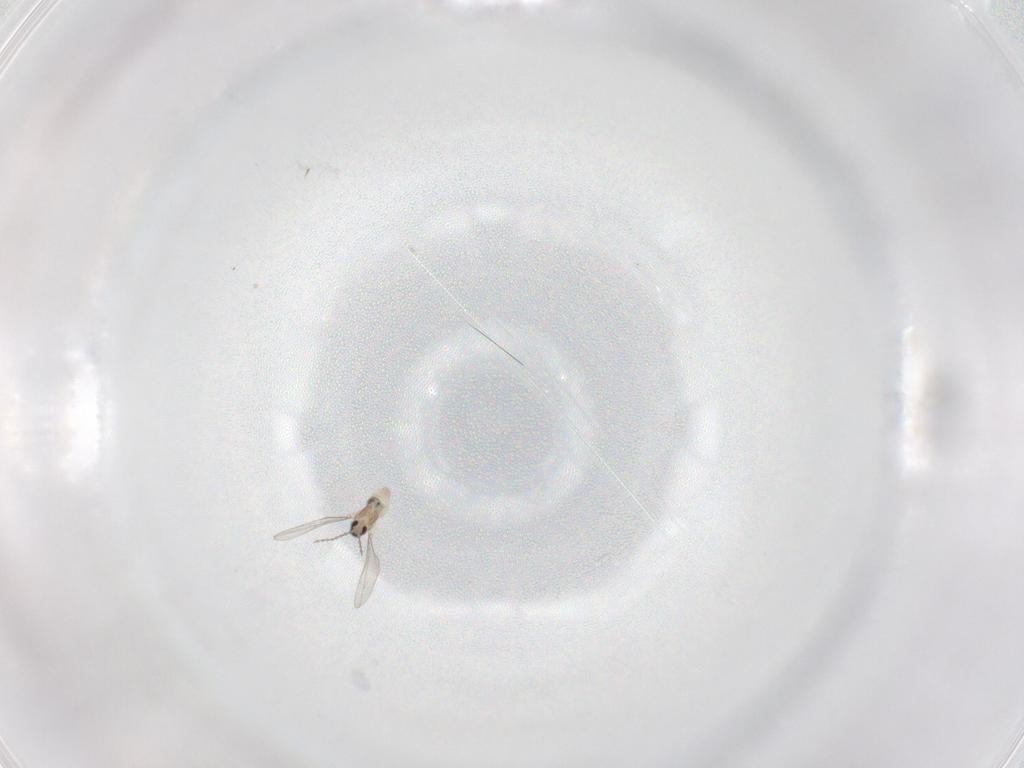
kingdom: Animalia
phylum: Arthropoda
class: Insecta
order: Diptera
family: Cecidomyiidae
